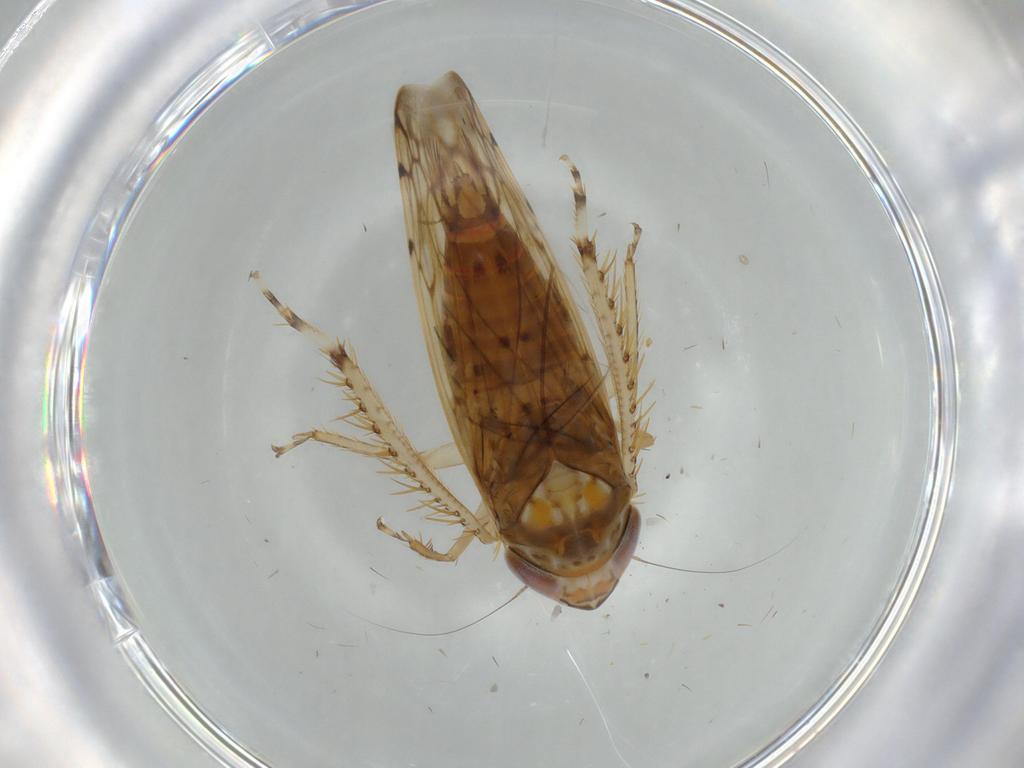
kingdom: Animalia
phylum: Arthropoda
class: Insecta
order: Hemiptera
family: Cicadellidae
